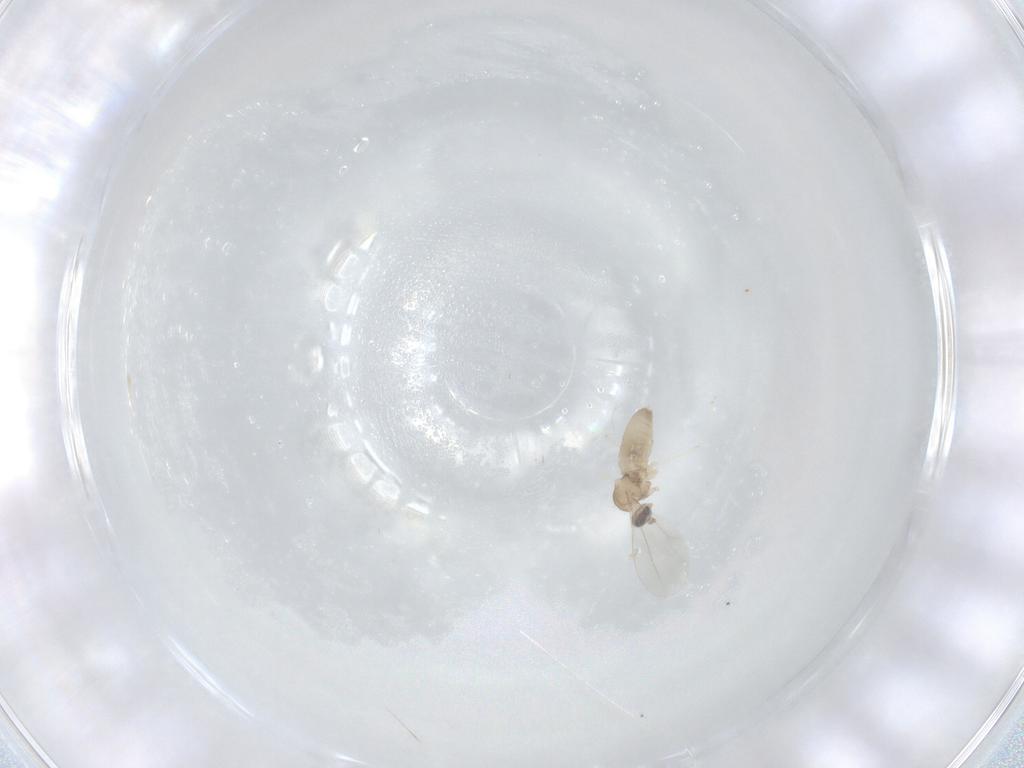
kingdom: Animalia
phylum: Arthropoda
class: Insecta
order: Diptera
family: Cecidomyiidae
